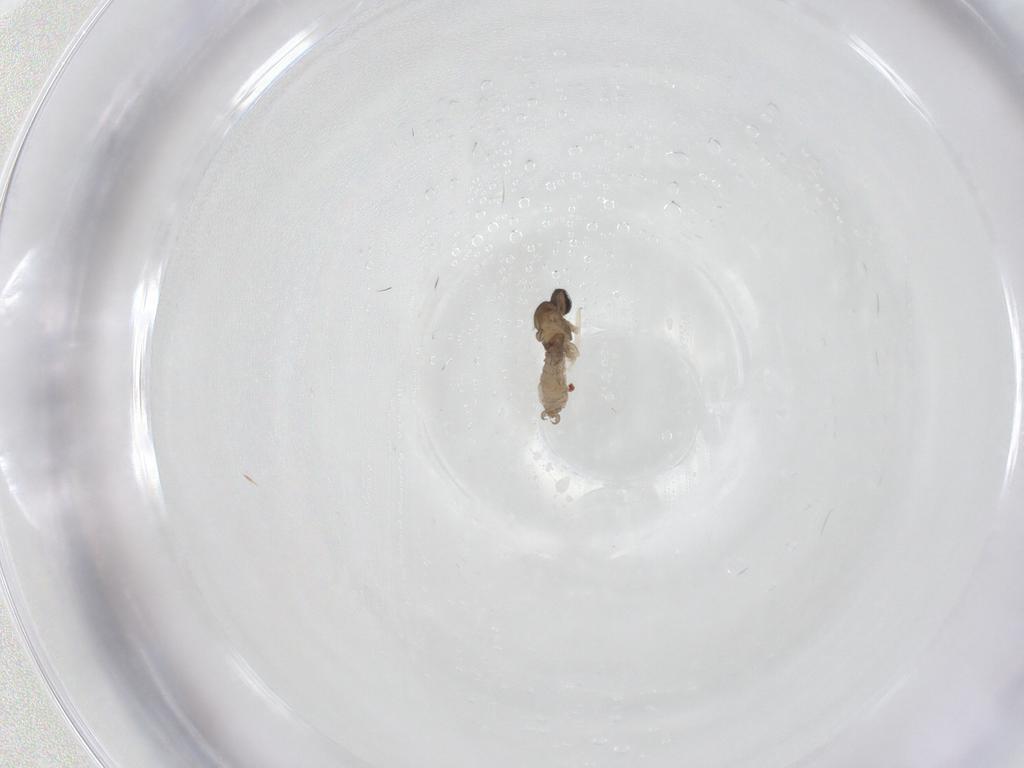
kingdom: Animalia
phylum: Arthropoda
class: Insecta
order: Diptera
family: Cecidomyiidae
